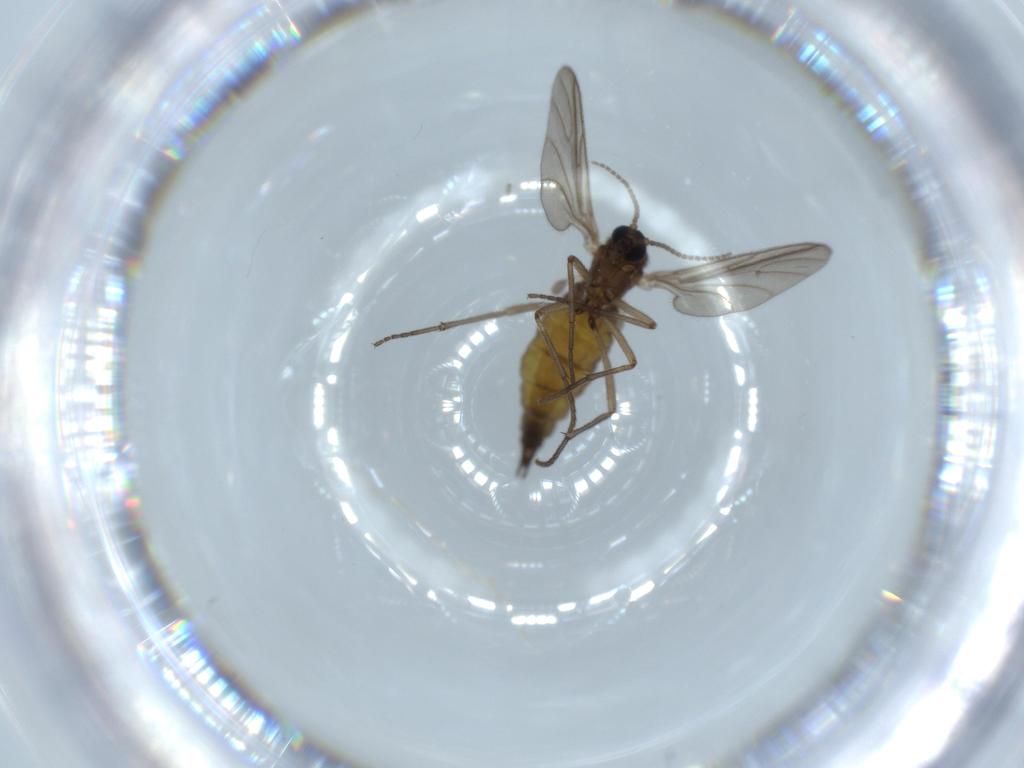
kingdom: Animalia
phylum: Arthropoda
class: Insecta
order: Diptera
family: Sciaridae
